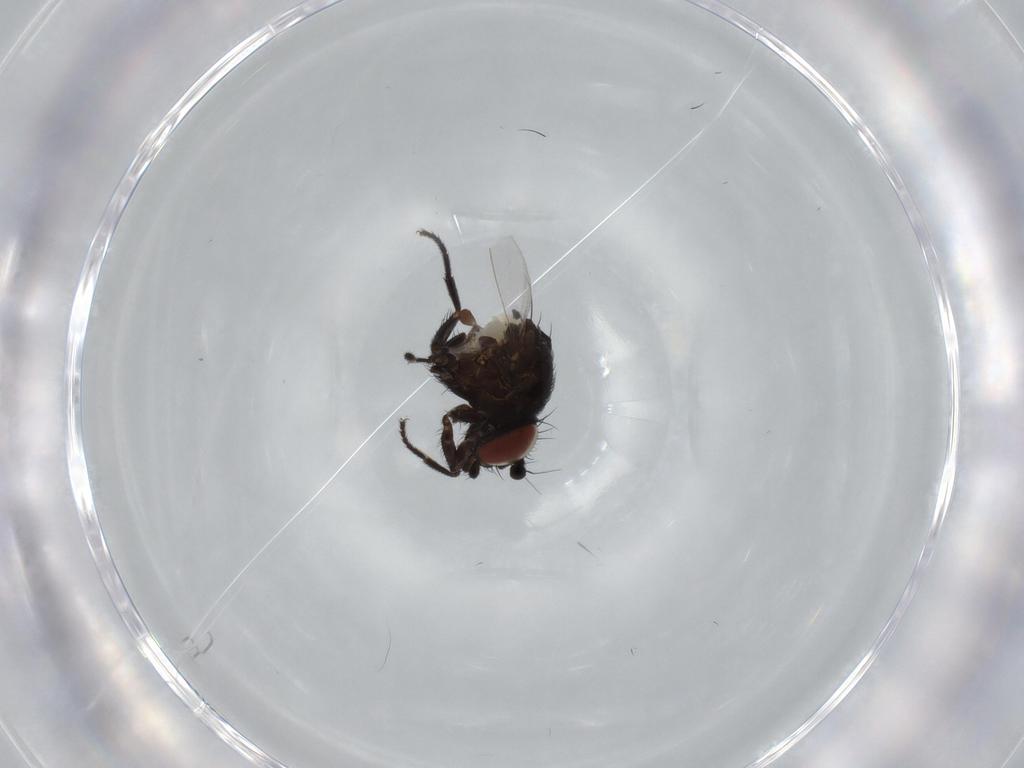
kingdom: Animalia
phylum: Arthropoda
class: Insecta
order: Diptera
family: Milichiidae
